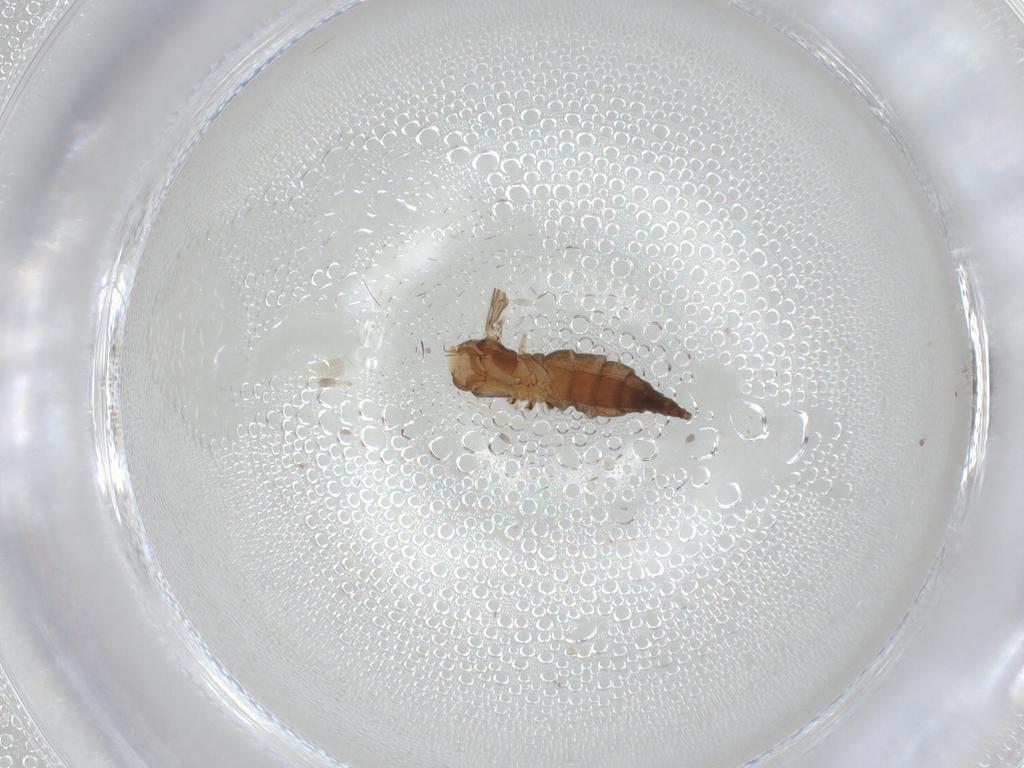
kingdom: Animalia
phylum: Arthropoda
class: Insecta
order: Diptera
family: Sciaridae
